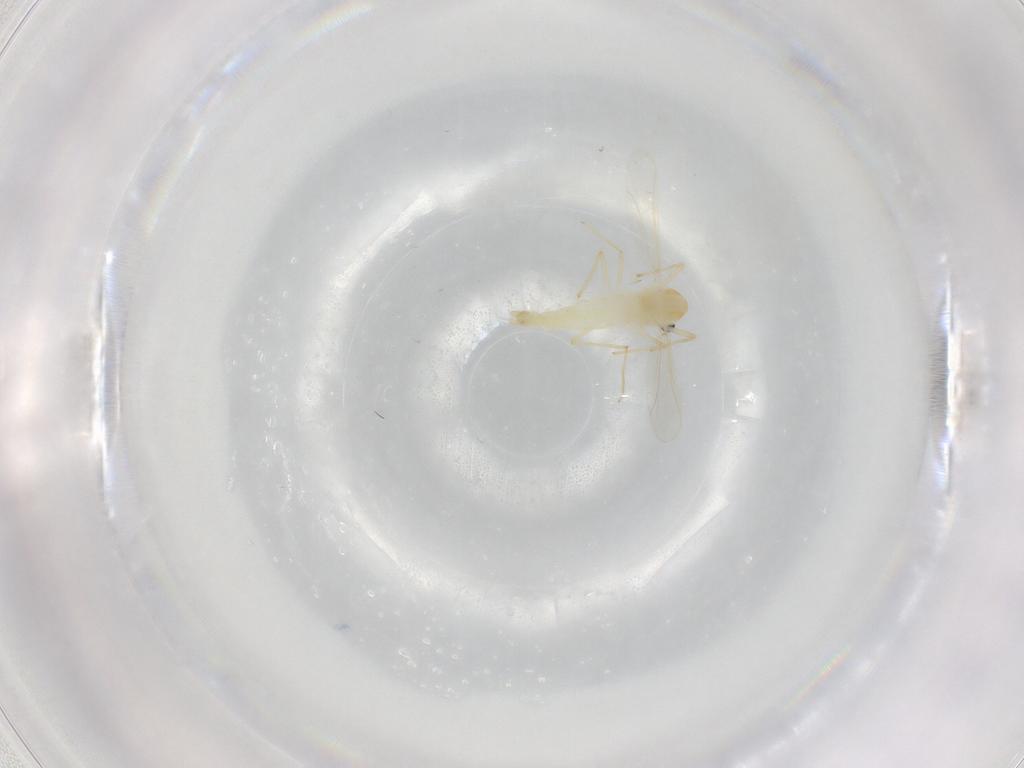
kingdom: Animalia
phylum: Arthropoda
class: Insecta
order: Diptera
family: Chironomidae
